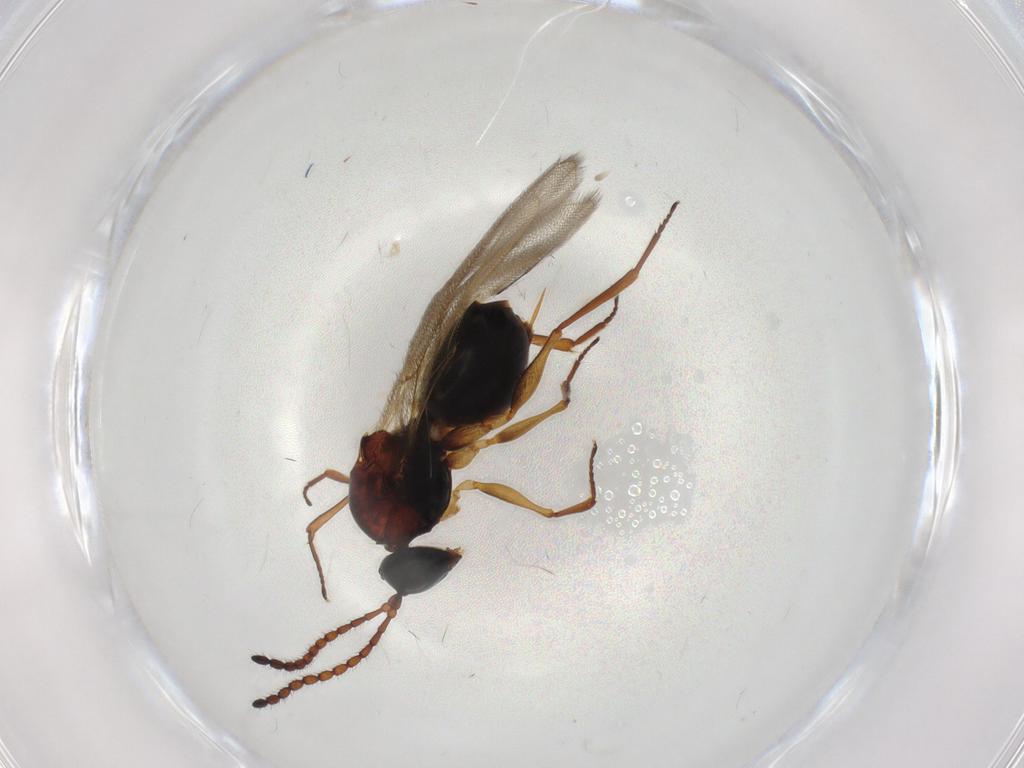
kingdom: Animalia
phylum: Arthropoda
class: Insecta
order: Hymenoptera
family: Figitidae
